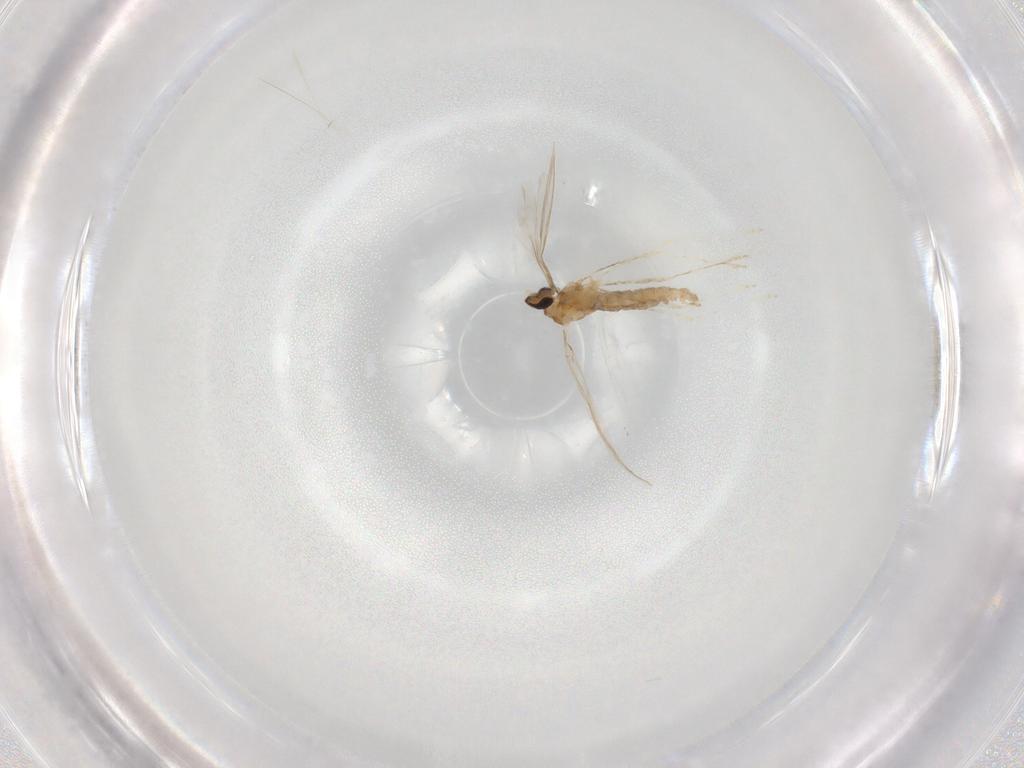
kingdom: Animalia
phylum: Arthropoda
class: Insecta
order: Diptera
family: Cecidomyiidae
